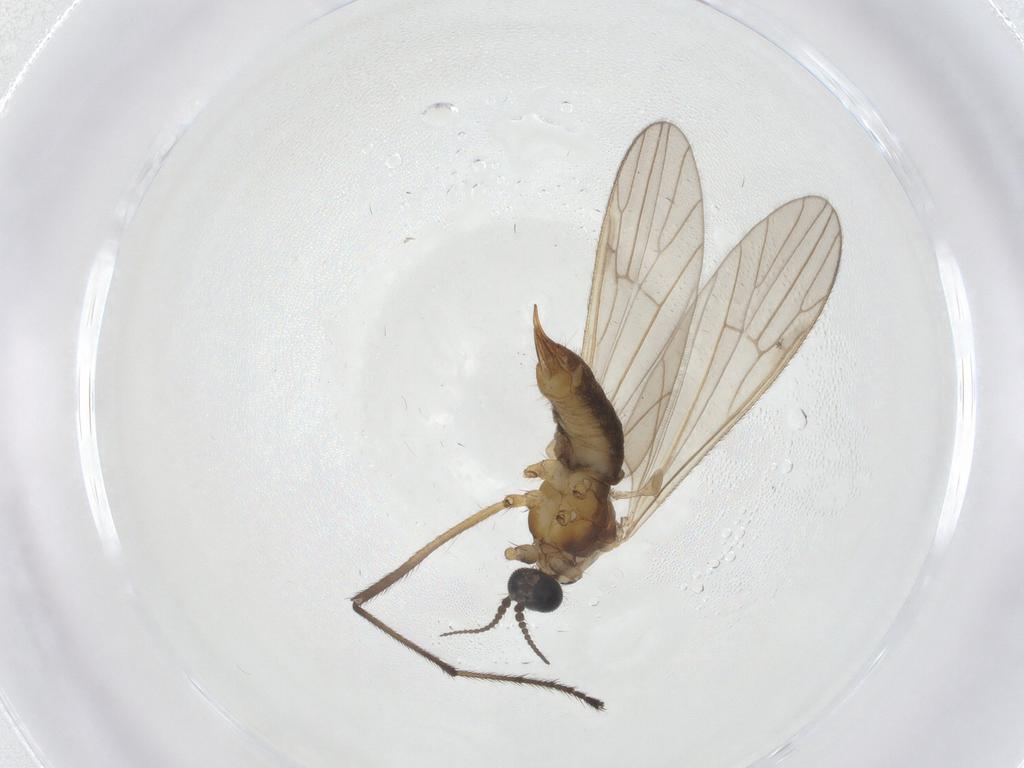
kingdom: Animalia
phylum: Arthropoda
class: Insecta
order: Diptera
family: Agromyzidae
